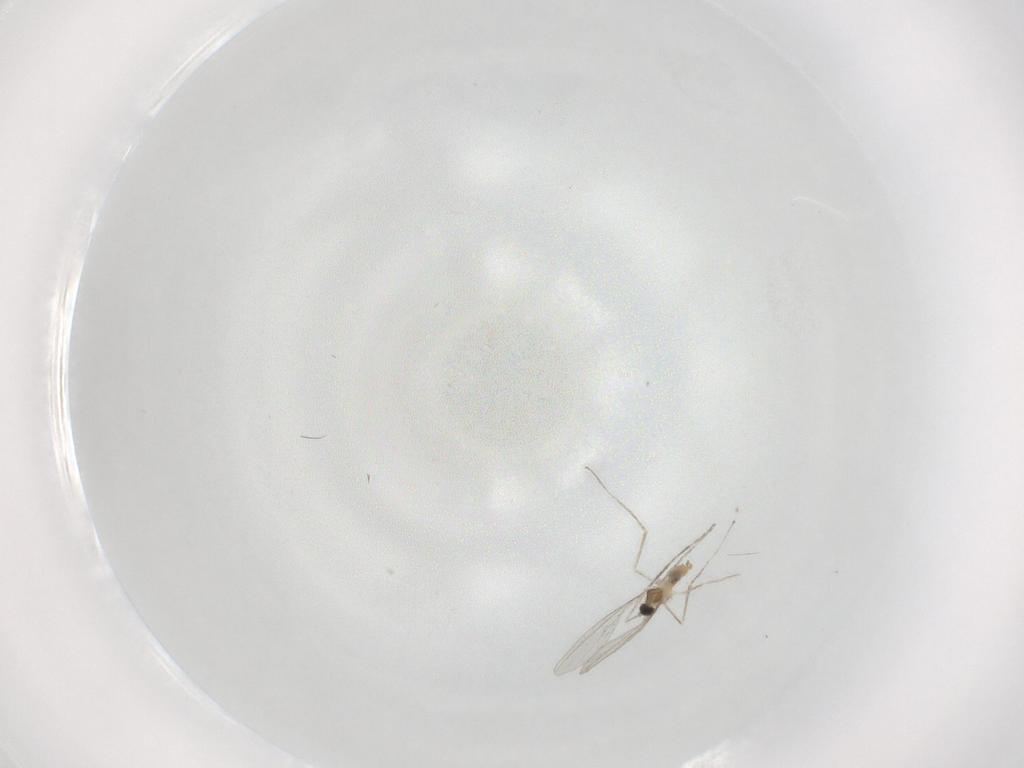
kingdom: Animalia
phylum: Arthropoda
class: Insecta
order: Diptera
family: Cecidomyiidae
